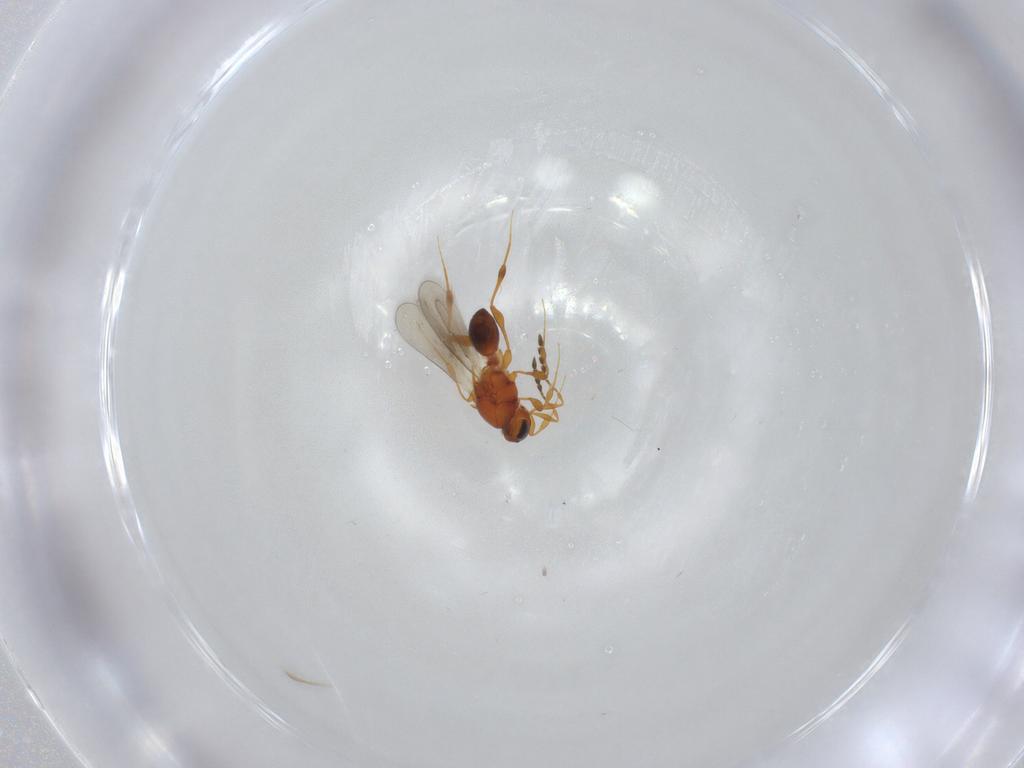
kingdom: Animalia
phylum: Arthropoda
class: Insecta
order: Hymenoptera
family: Platygastridae
